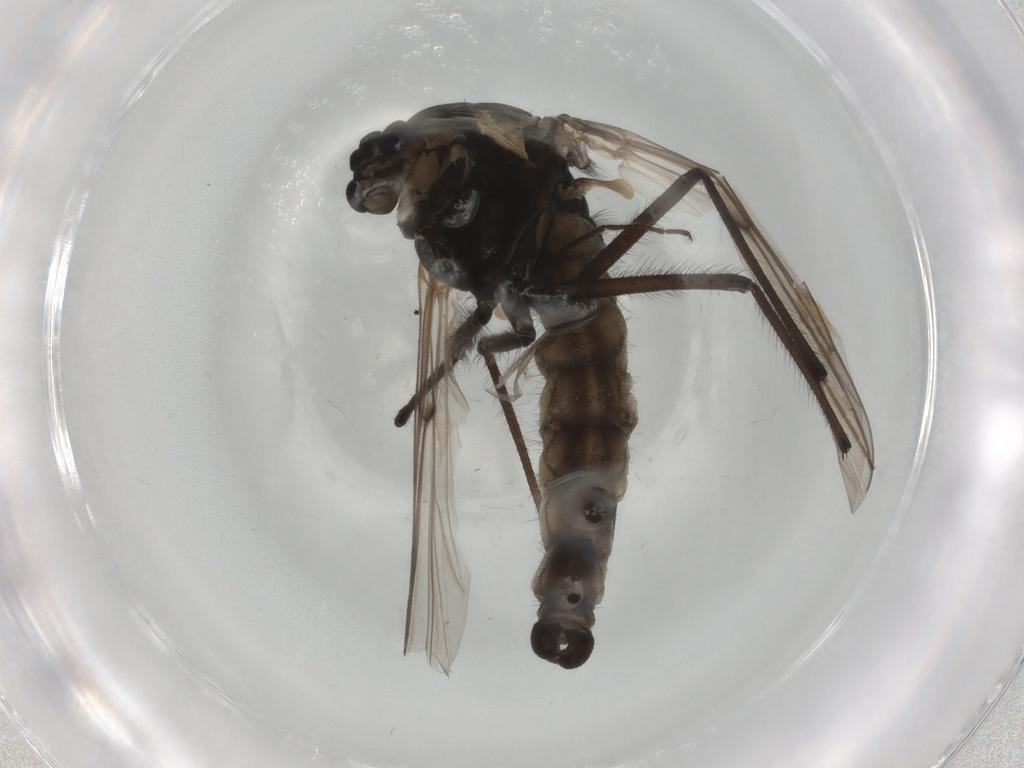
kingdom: Animalia
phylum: Arthropoda
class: Insecta
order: Diptera
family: Chironomidae
